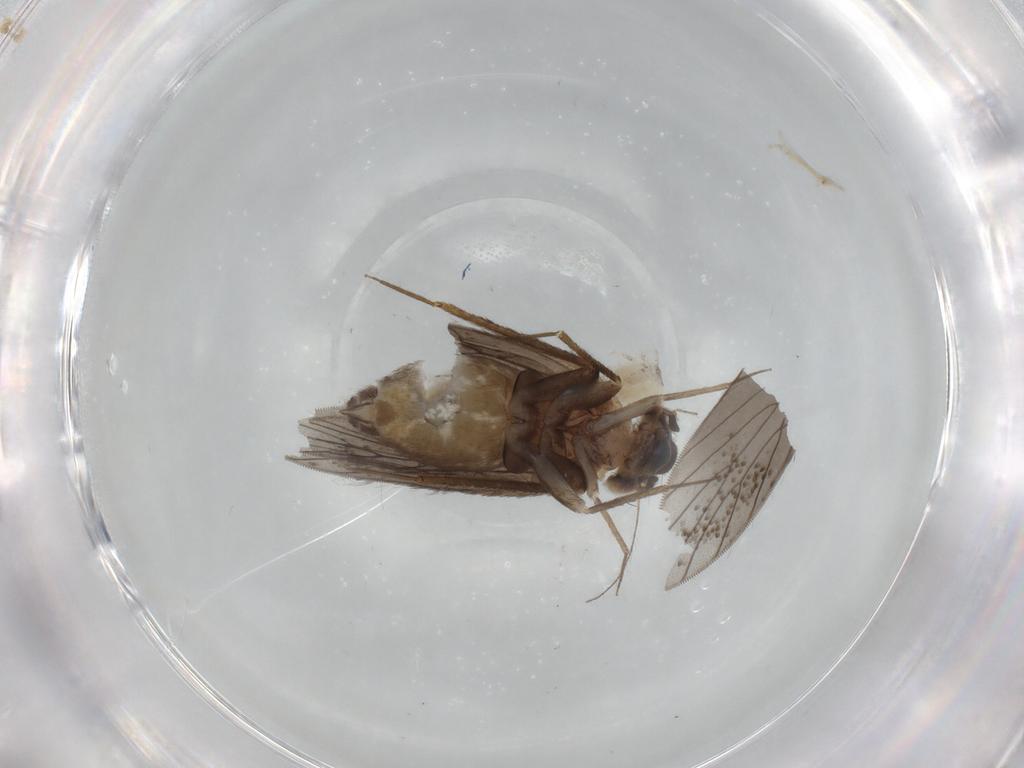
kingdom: Animalia
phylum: Arthropoda
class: Insecta
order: Psocodea
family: Lepidopsocidae
